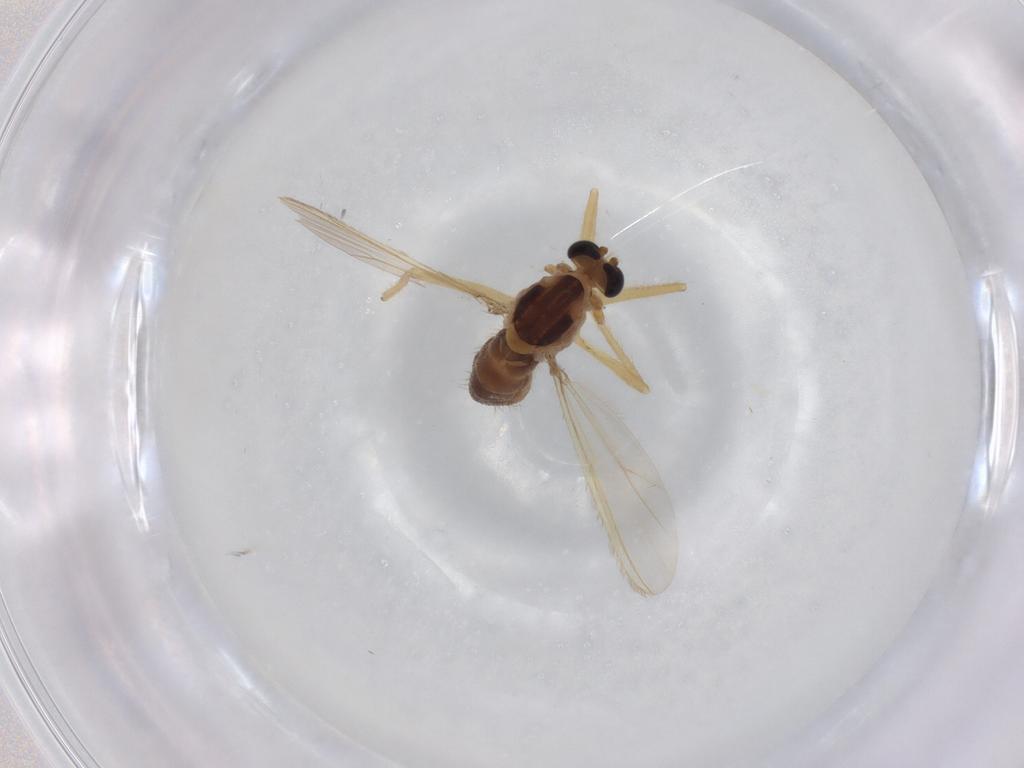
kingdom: Animalia
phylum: Arthropoda
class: Insecta
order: Diptera
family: Chironomidae
